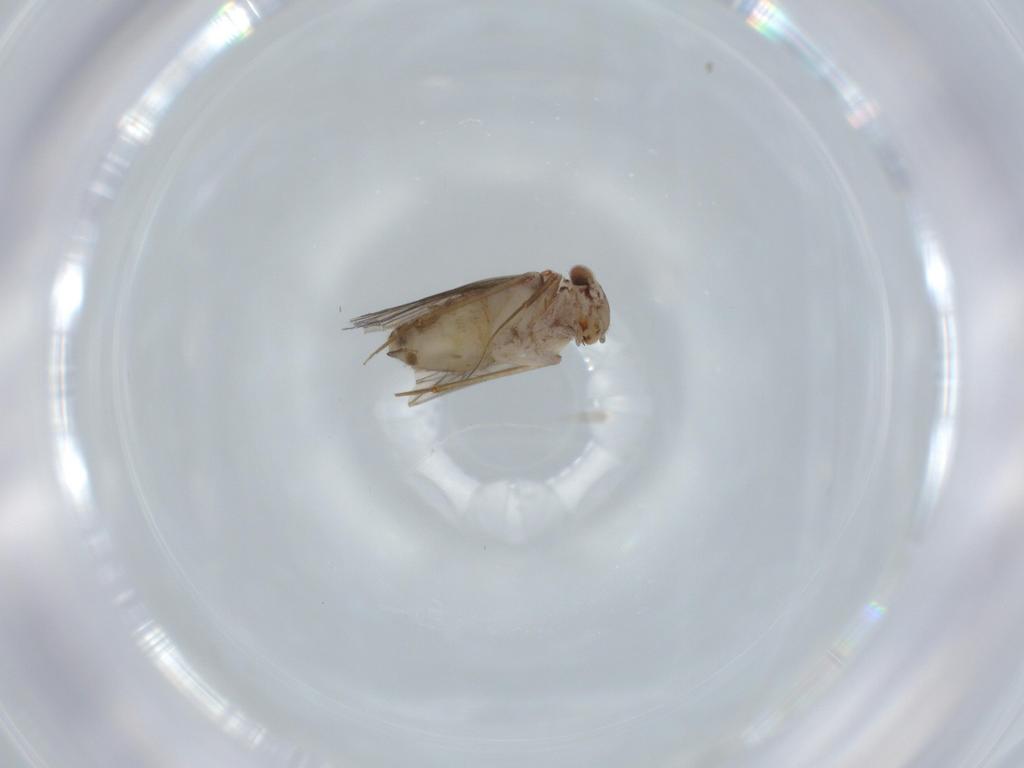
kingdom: Animalia
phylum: Arthropoda
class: Insecta
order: Psocodea
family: Lepidopsocidae
